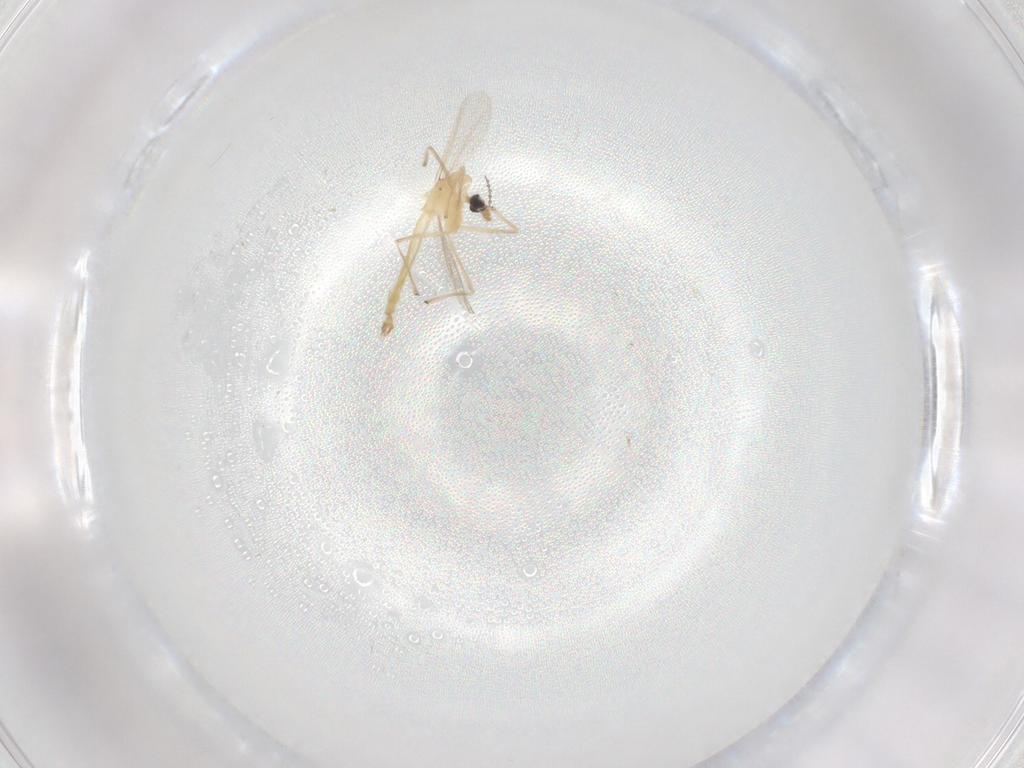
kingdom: Animalia
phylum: Arthropoda
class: Insecta
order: Diptera
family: Chironomidae
